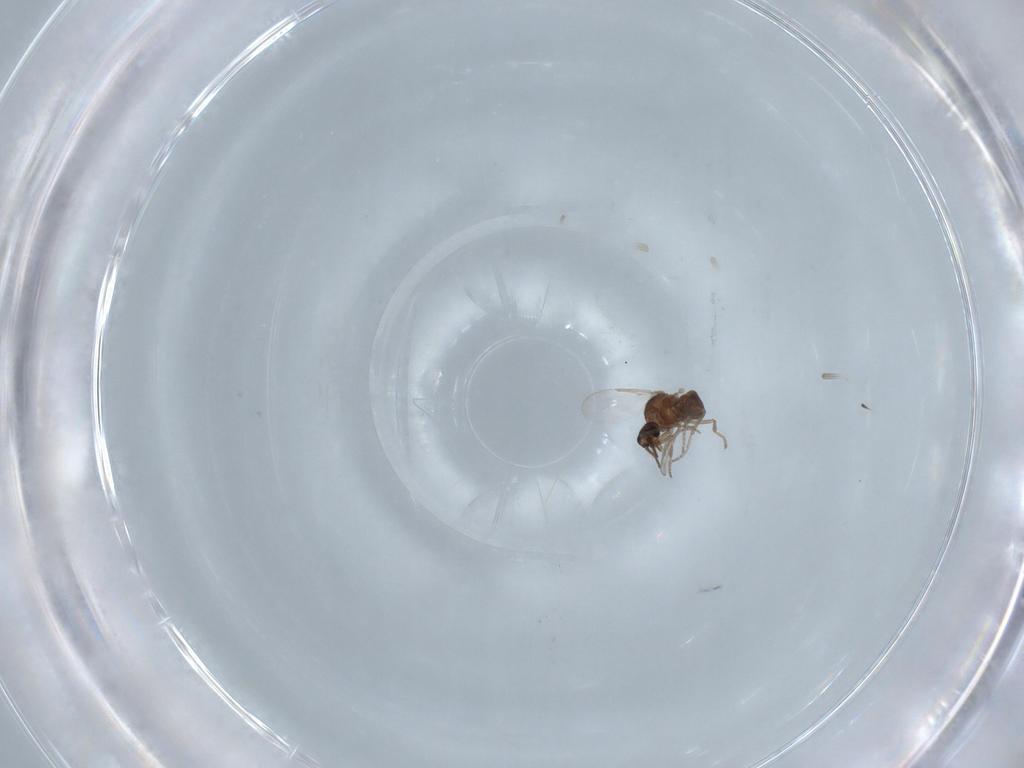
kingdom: Animalia
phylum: Arthropoda
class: Insecta
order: Diptera
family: Ceratopogonidae
